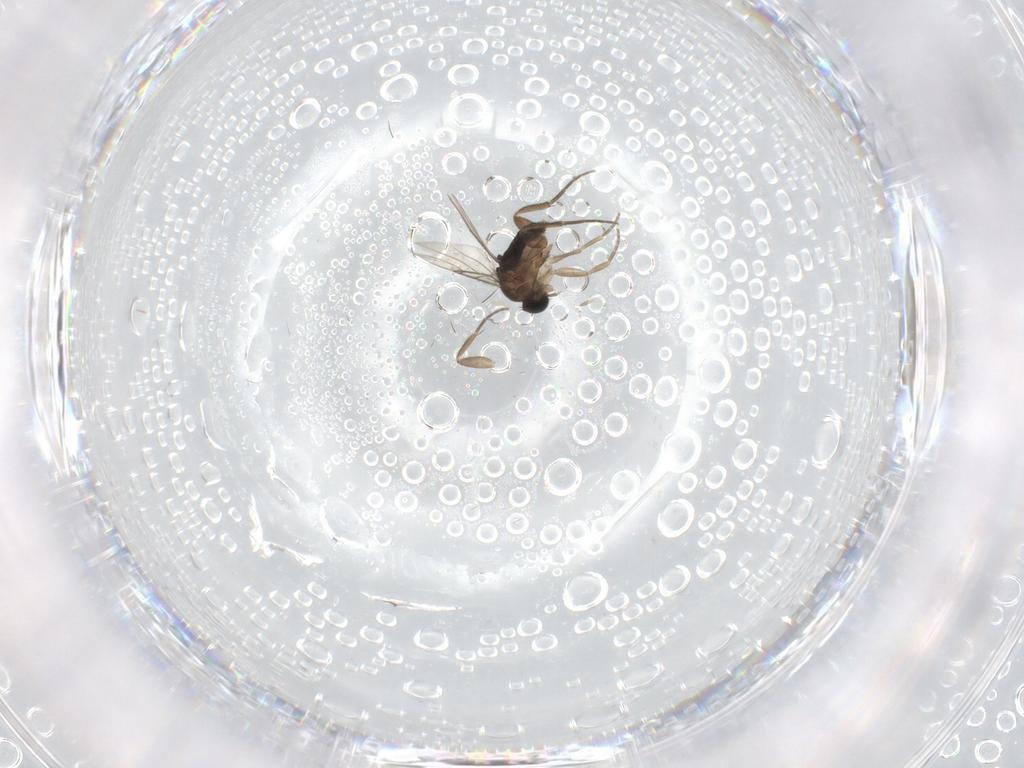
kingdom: Animalia
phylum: Arthropoda
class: Insecta
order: Diptera
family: Phoridae
